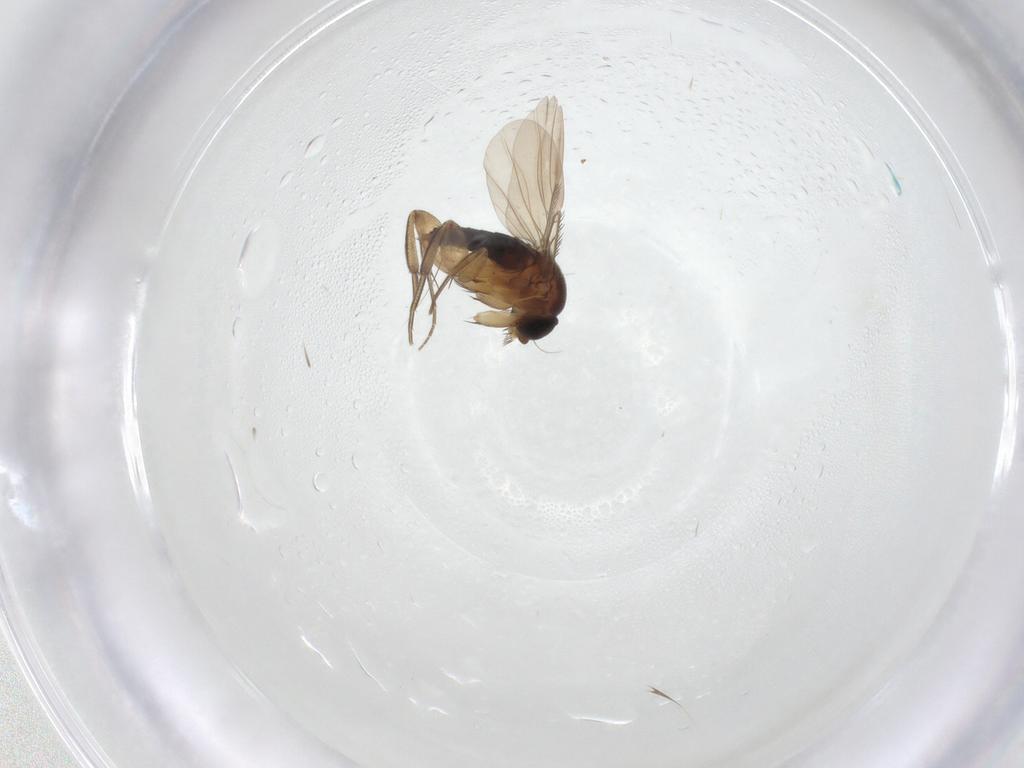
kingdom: Animalia
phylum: Arthropoda
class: Insecta
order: Diptera
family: Phoridae
